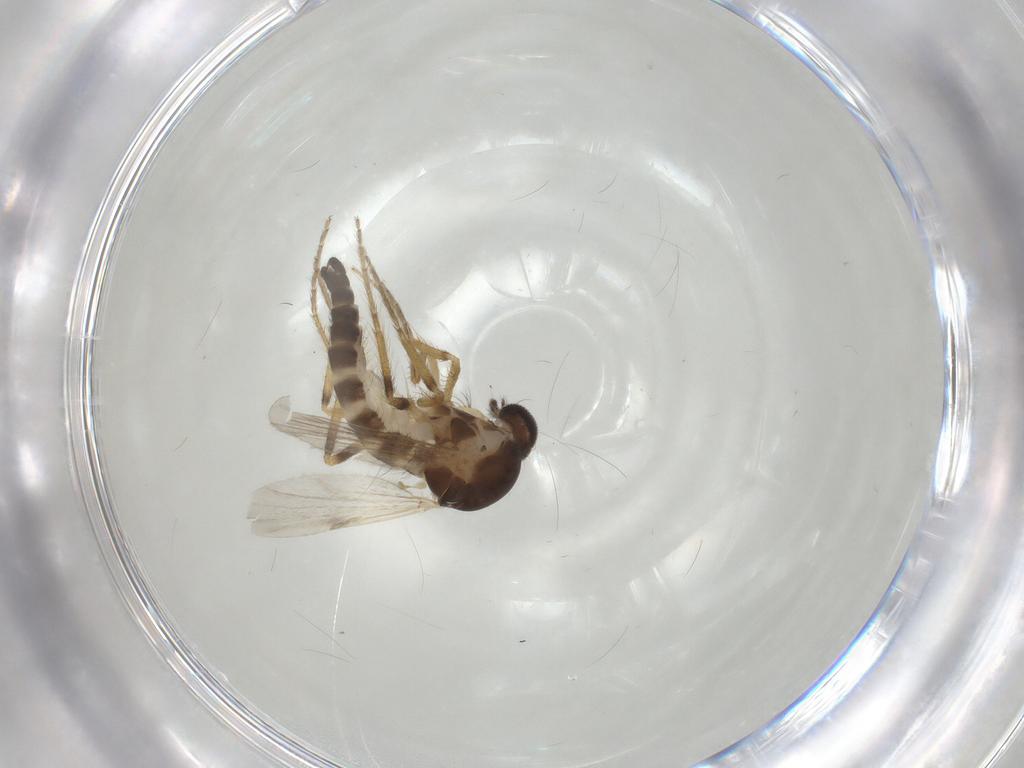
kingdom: Animalia
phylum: Arthropoda
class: Insecta
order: Diptera
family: Ceratopogonidae
